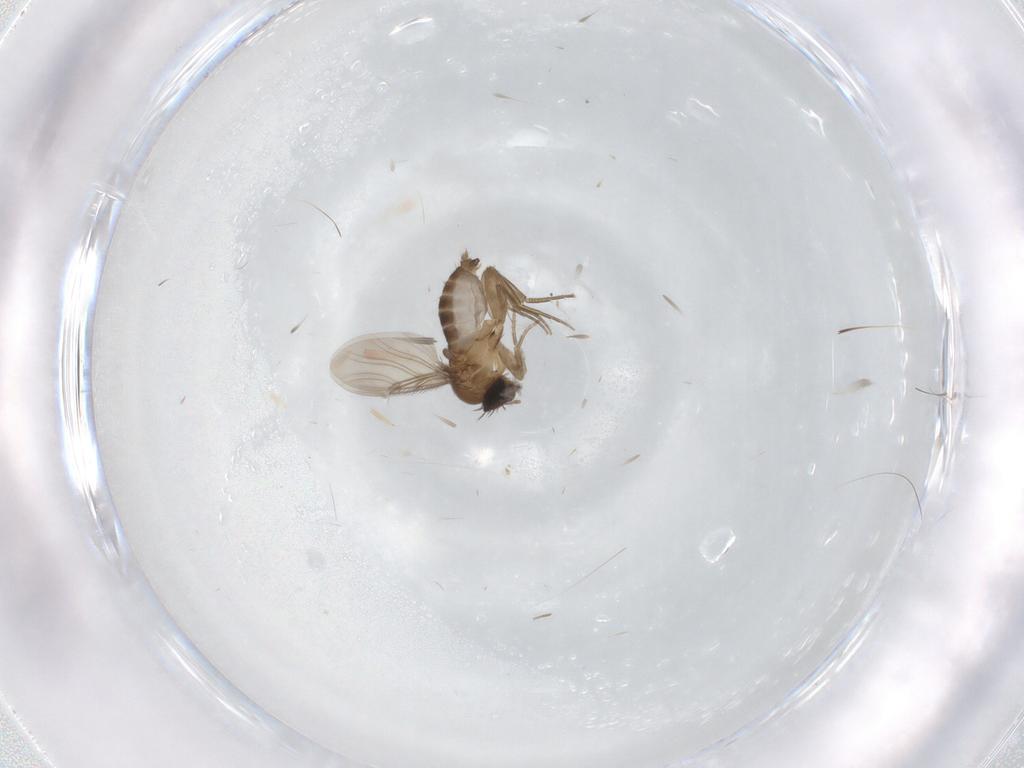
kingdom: Animalia
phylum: Arthropoda
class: Insecta
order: Diptera
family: Phoridae
